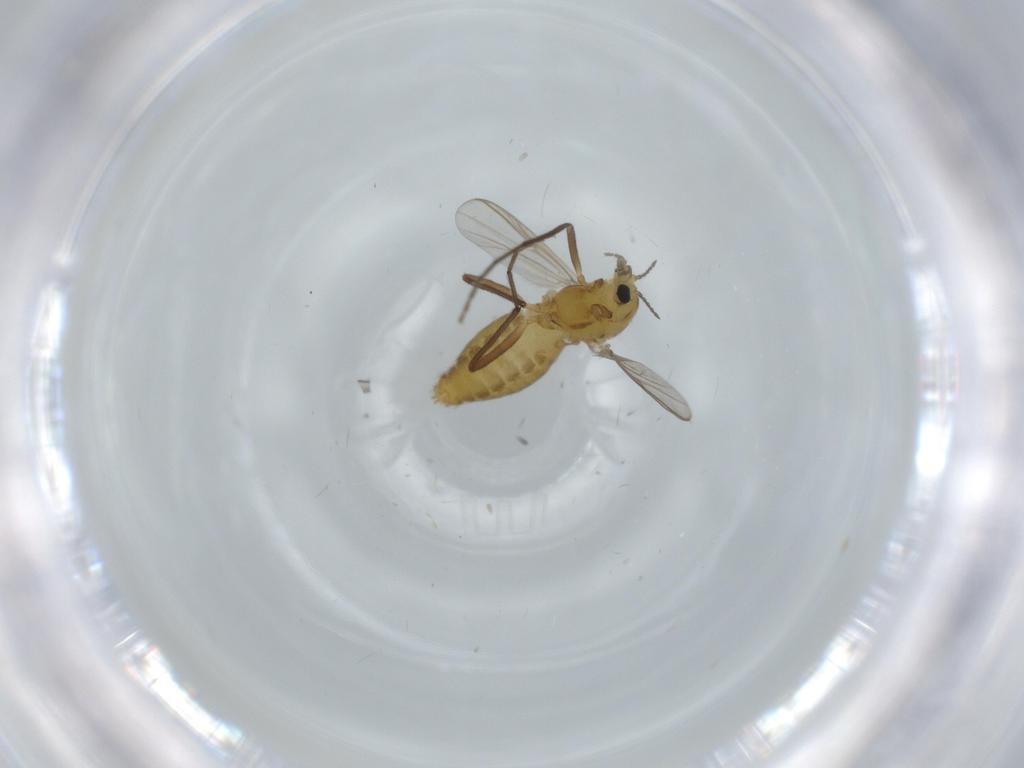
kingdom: Animalia
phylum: Arthropoda
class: Insecta
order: Diptera
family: Chironomidae
